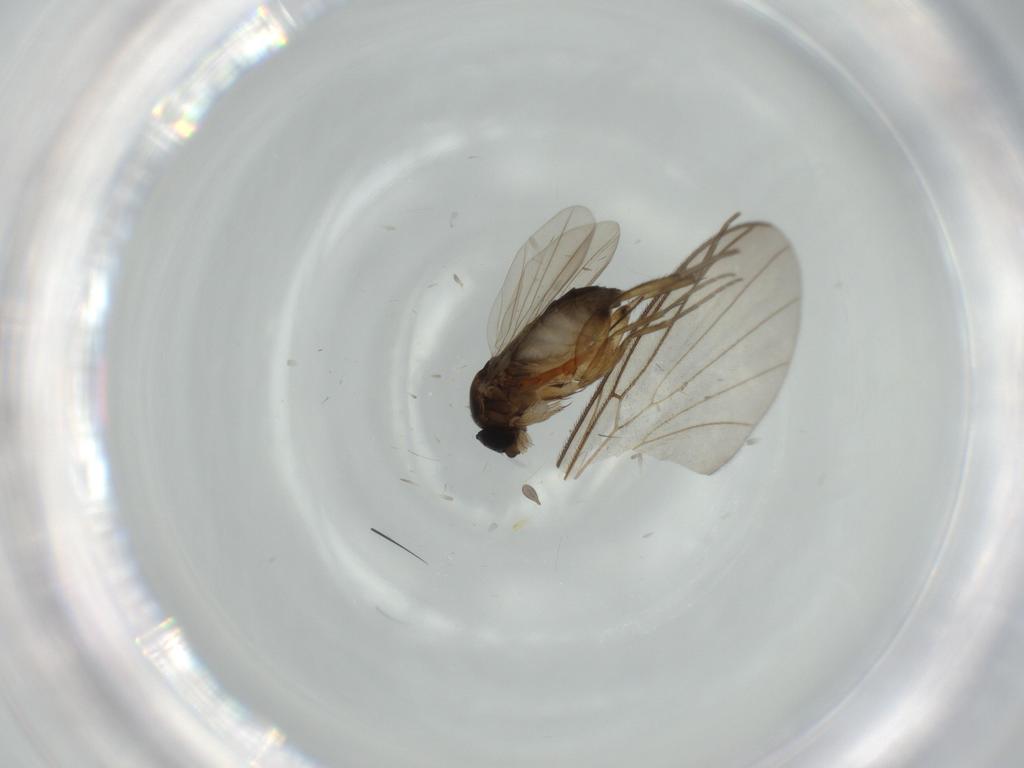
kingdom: Animalia
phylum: Arthropoda
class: Insecta
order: Diptera
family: Sciaridae
